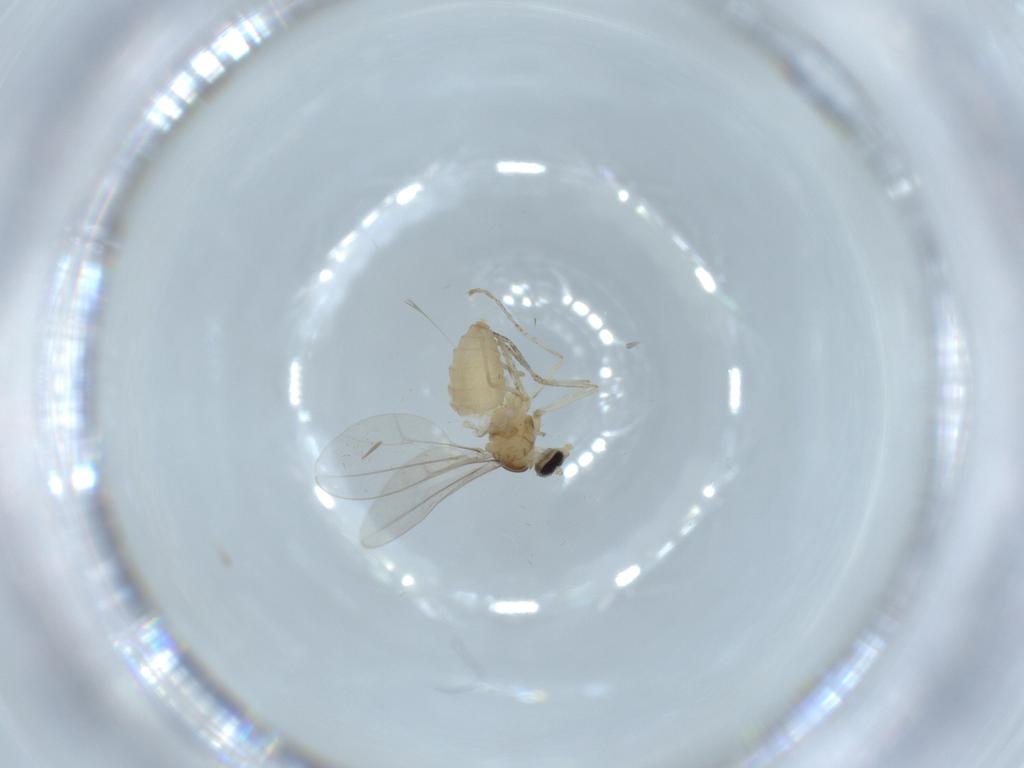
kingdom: Animalia
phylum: Arthropoda
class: Insecta
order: Diptera
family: Cecidomyiidae
